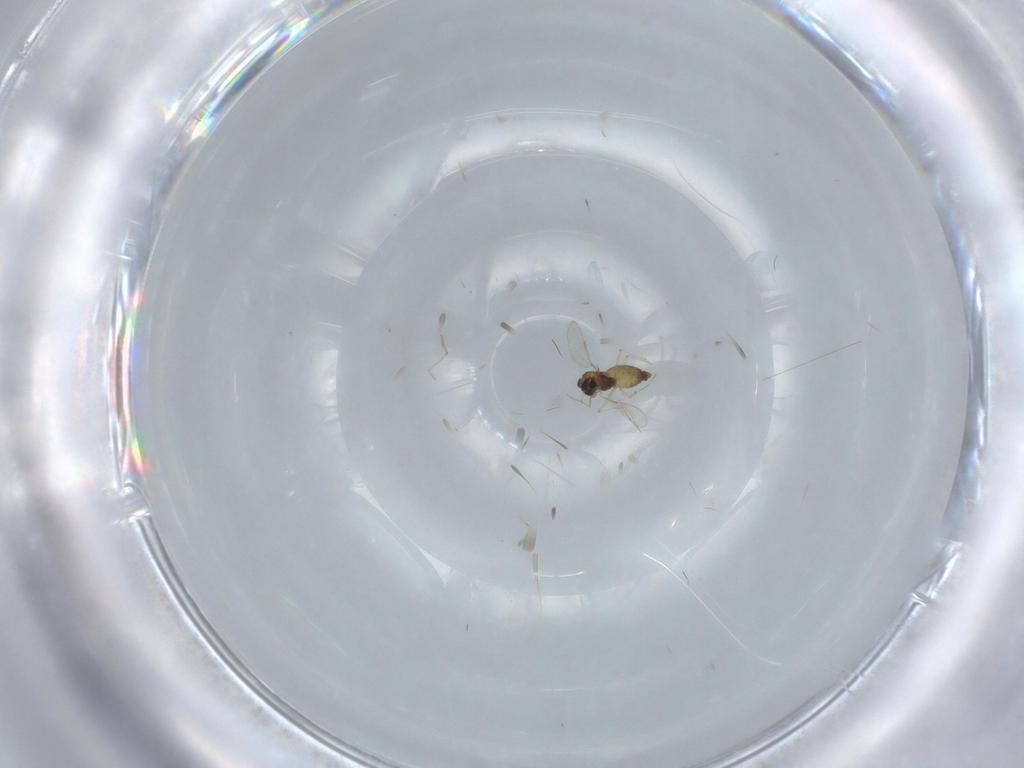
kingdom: Animalia
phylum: Arthropoda
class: Insecta
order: Diptera
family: Chironomidae
